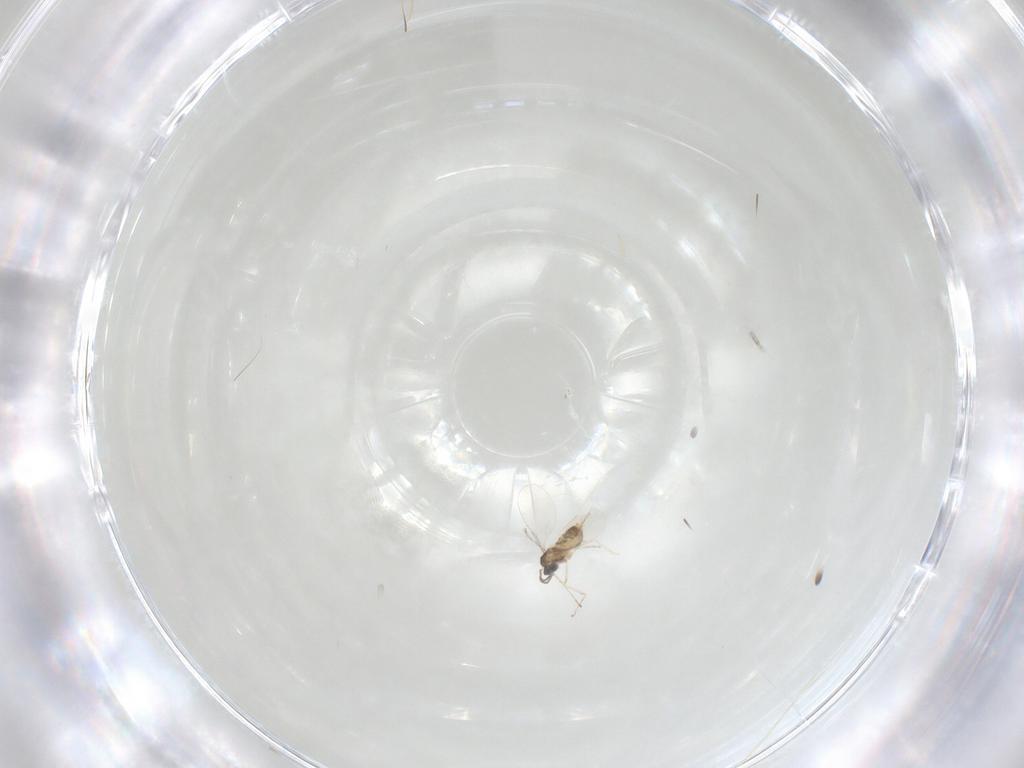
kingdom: Animalia
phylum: Arthropoda
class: Insecta
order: Diptera
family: Cecidomyiidae
